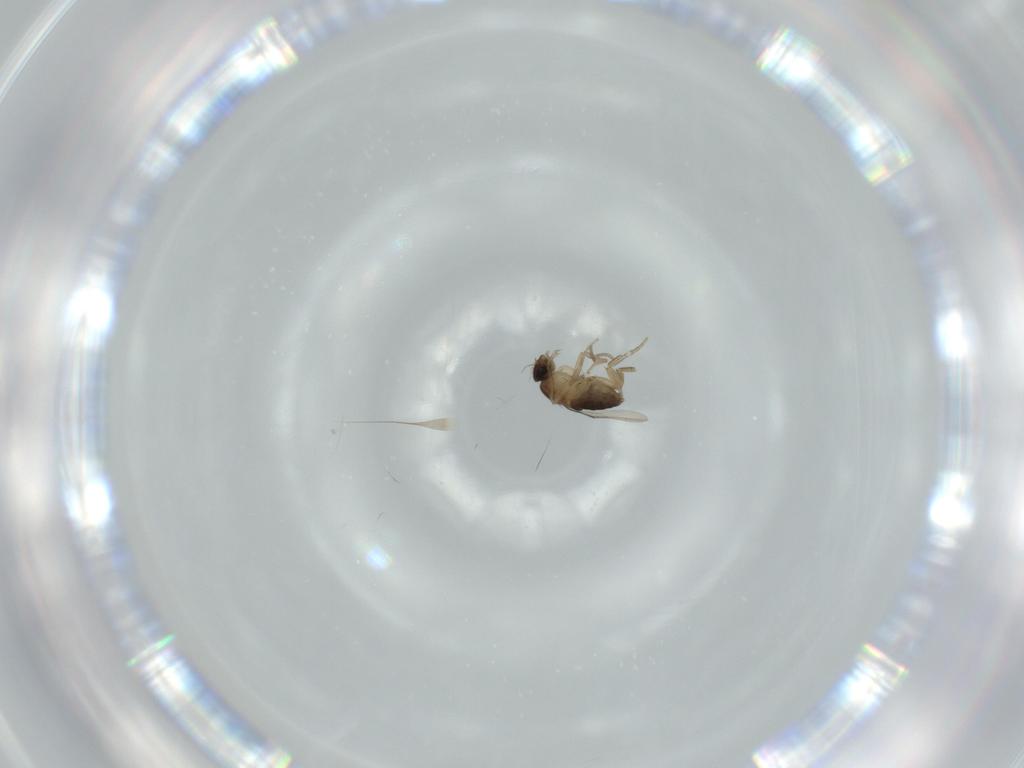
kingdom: Animalia
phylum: Arthropoda
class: Insecta
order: Diptera
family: Phoridae
